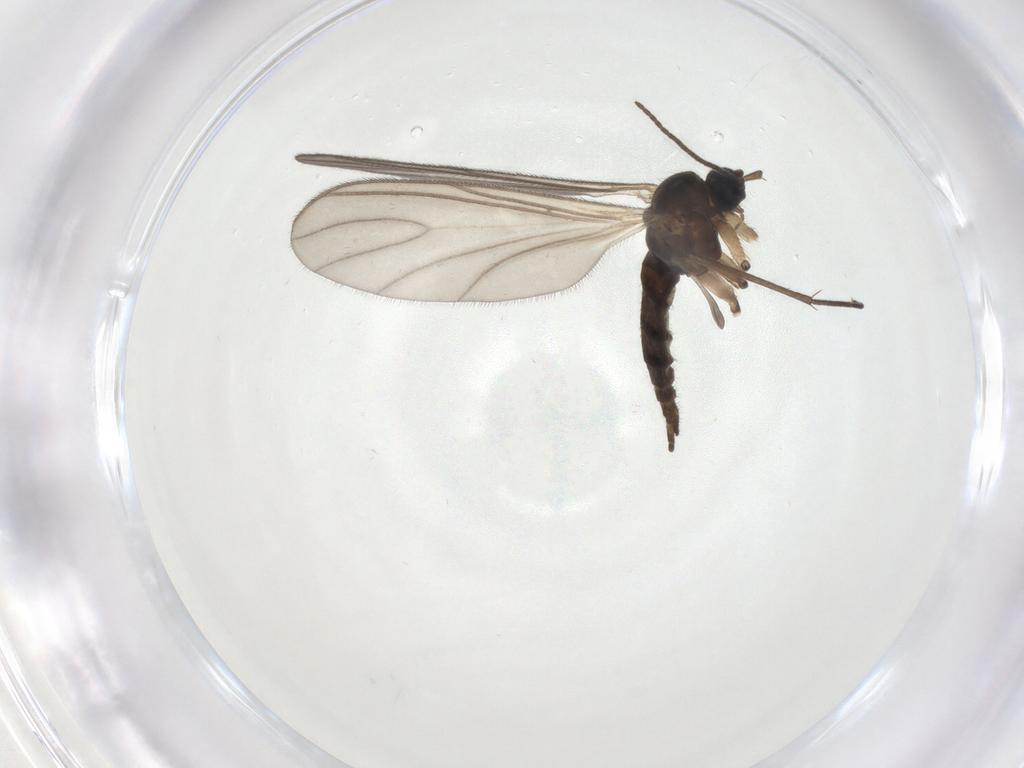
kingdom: Animalia
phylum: Arthropoda
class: Insecta
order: Diptera
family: Sciaridae
